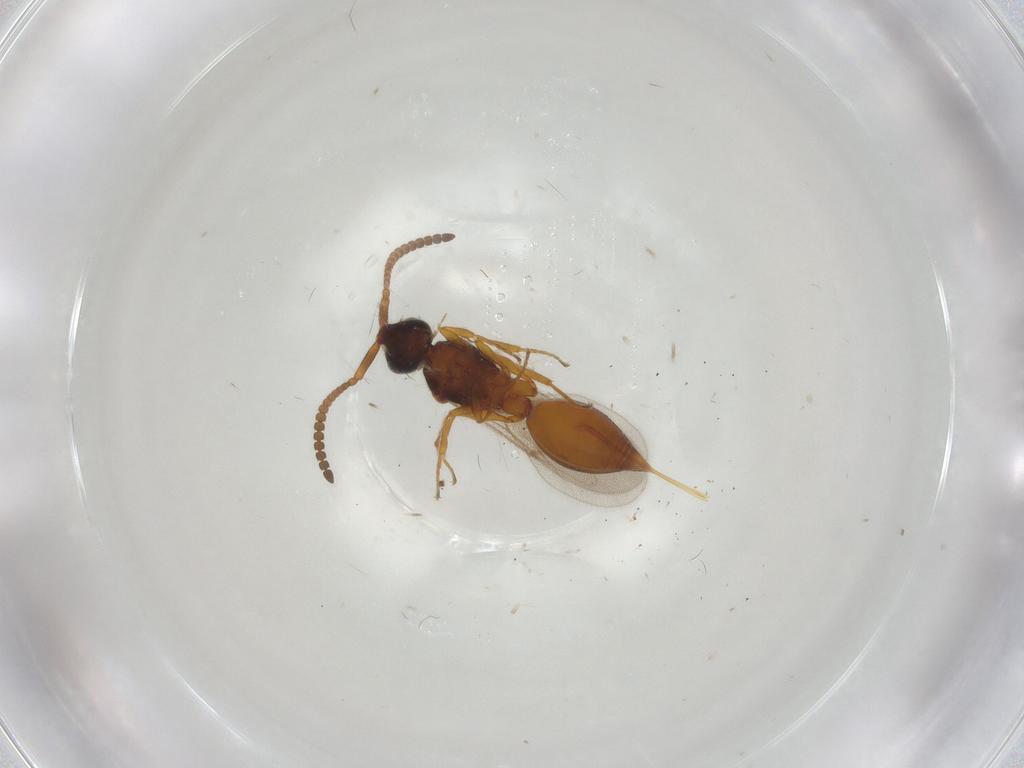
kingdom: Animalia
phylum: Arthropoda
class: Insecta
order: Hymenoptera
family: Diapriidae
